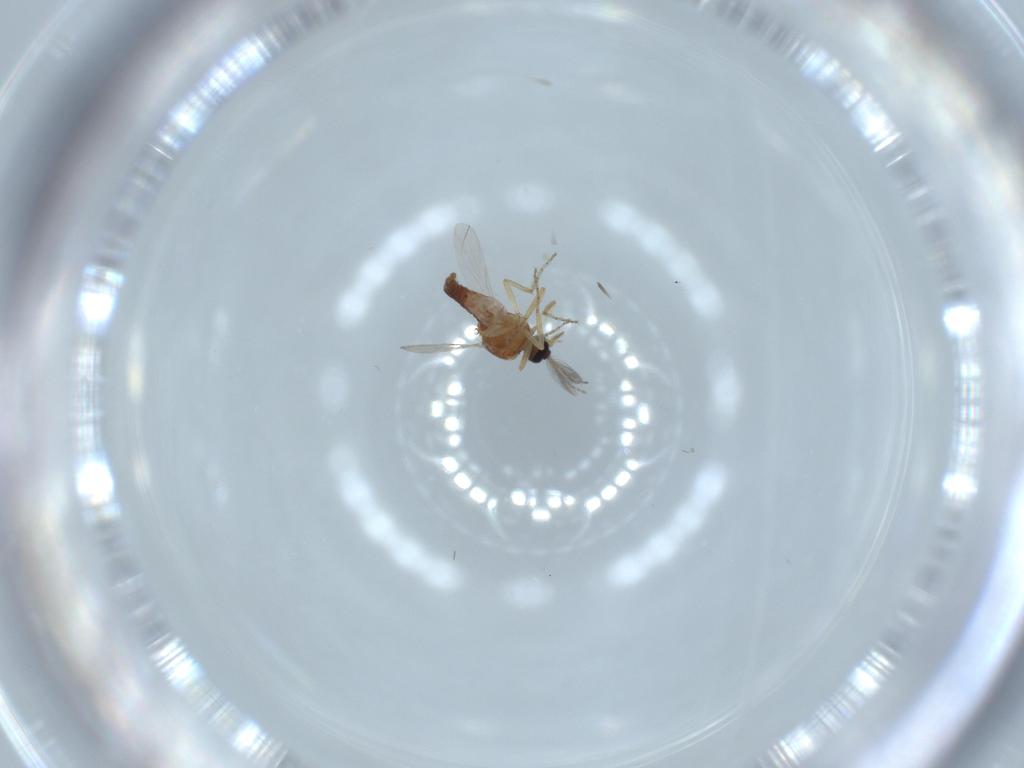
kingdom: Animalia
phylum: Arthropoda
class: Insecta
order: Diptera
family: Ceratopogonidae
